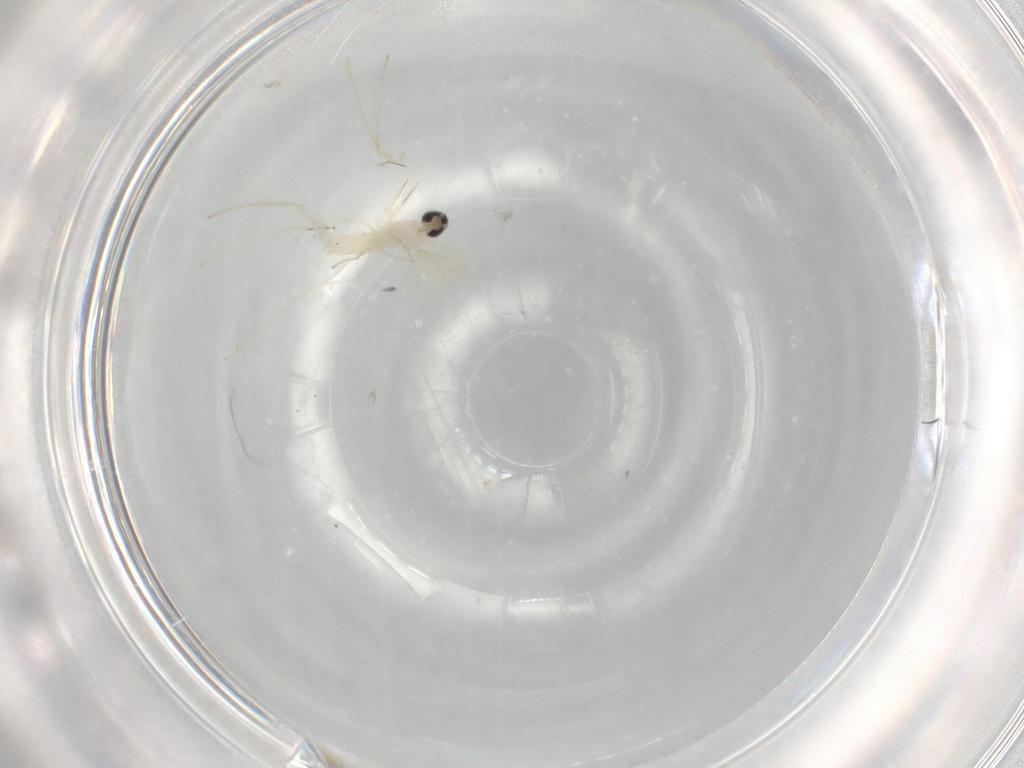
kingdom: Animalia
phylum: Arthropoda
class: Insecta
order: Diptera
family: Cecidomyiidae
